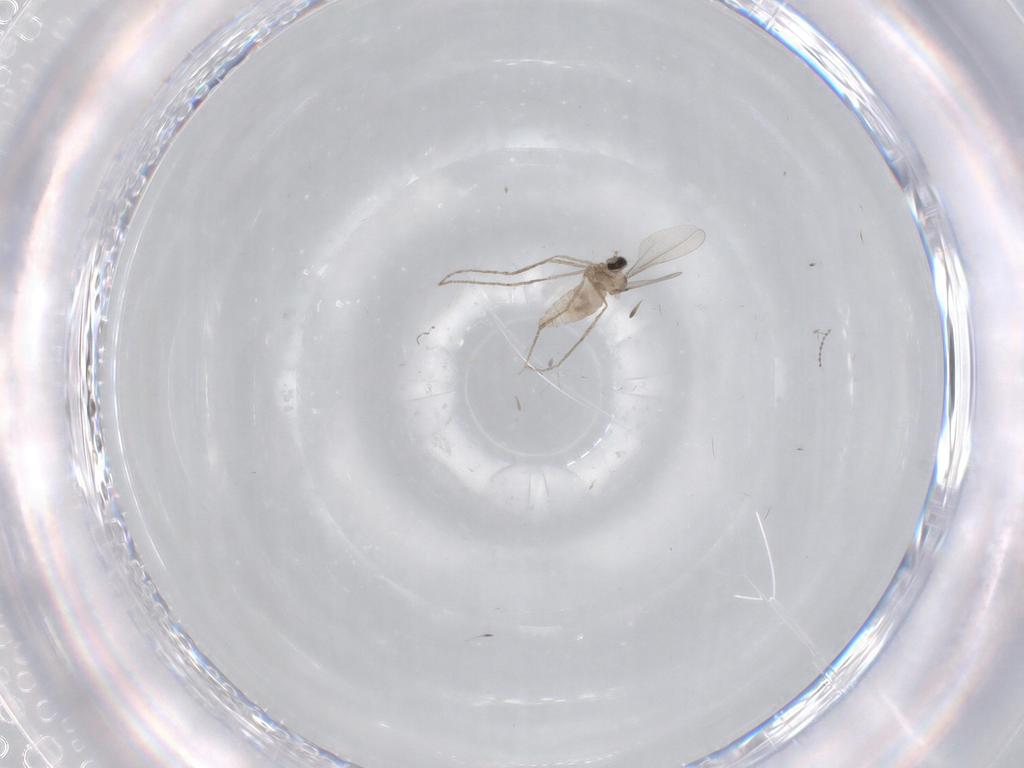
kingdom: Animalia
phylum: Arthropoda
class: Insecta
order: Diptera
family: Cecidomyiidae
